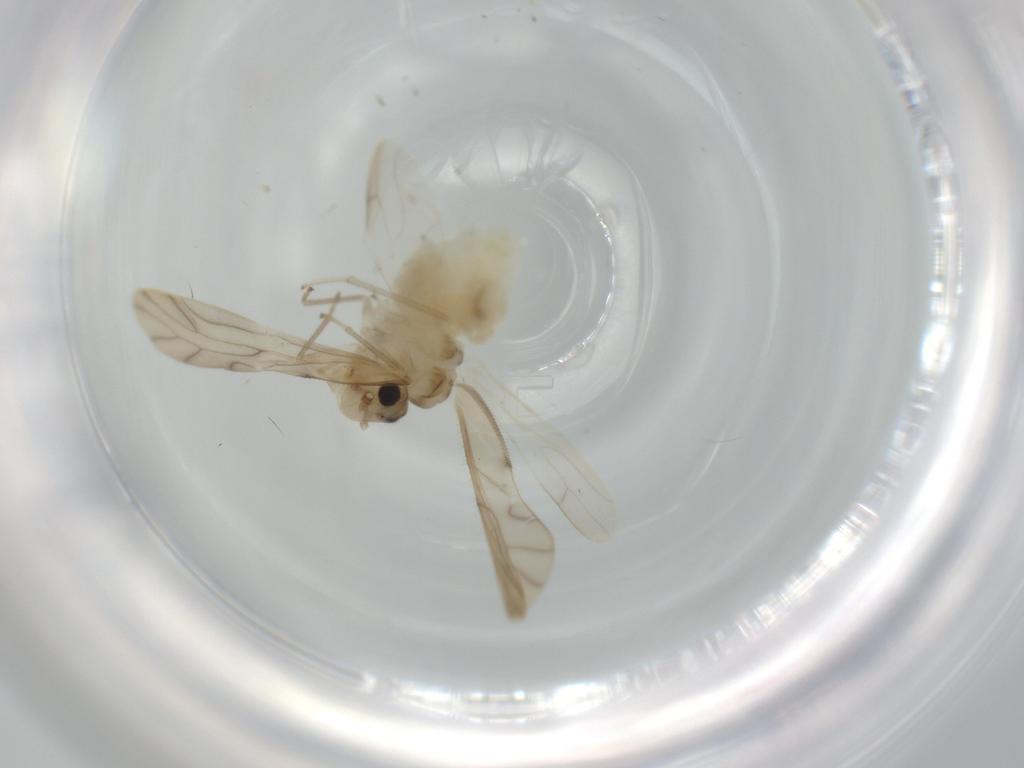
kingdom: Animalia
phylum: Arthropoda
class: Insecta
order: Psocodea
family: Caeciliusidae
